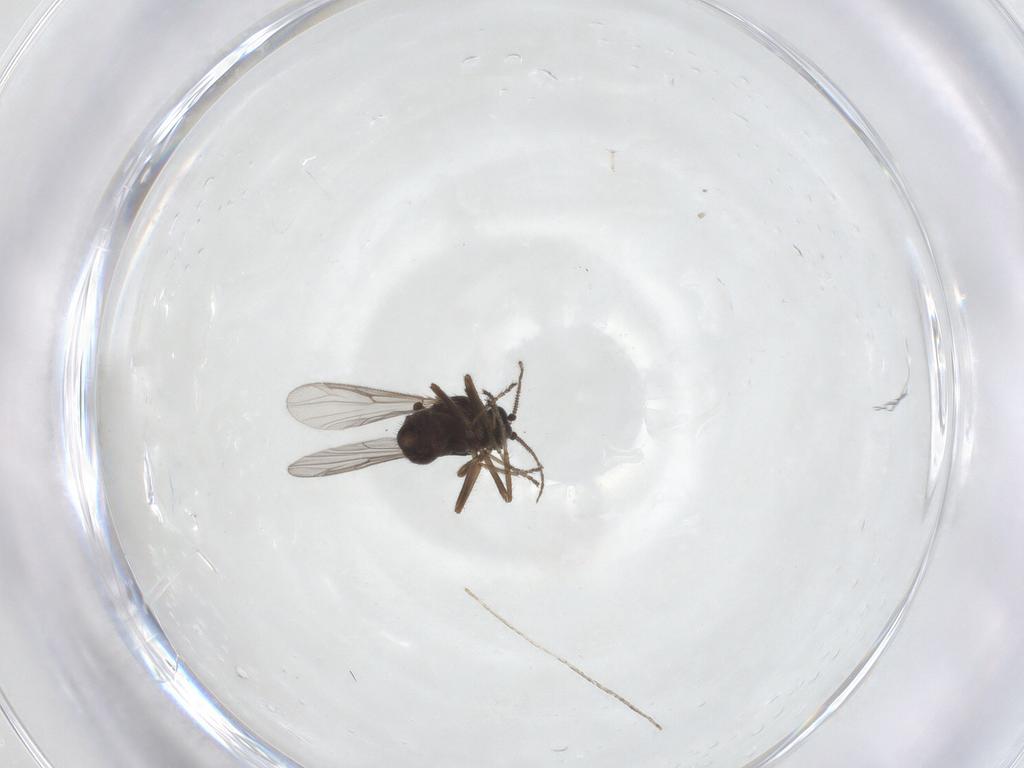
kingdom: Animalia
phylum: Arthropoda
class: Insecta
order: Diptera
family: Ceratopogonidae
